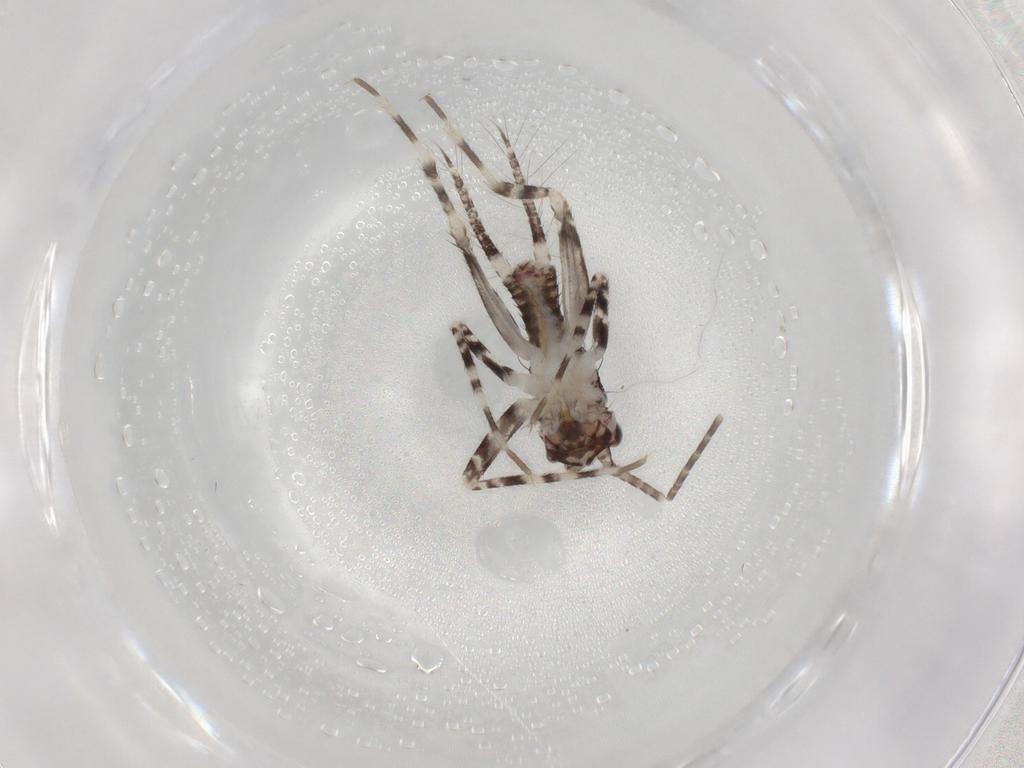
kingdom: Animalia
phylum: Arthropoda
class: Insecta
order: Orthoptera
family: Gryllidae
